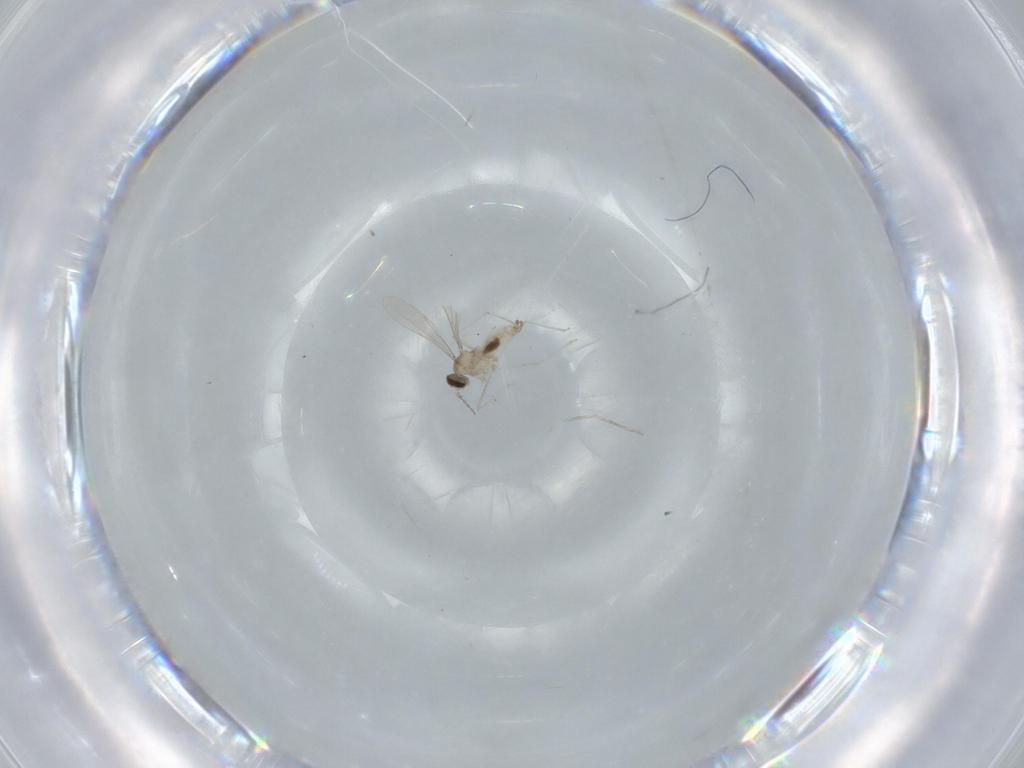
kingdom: Animalia
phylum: Arthropoda
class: Insecta
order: Diptera
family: Cecidomyiidae
